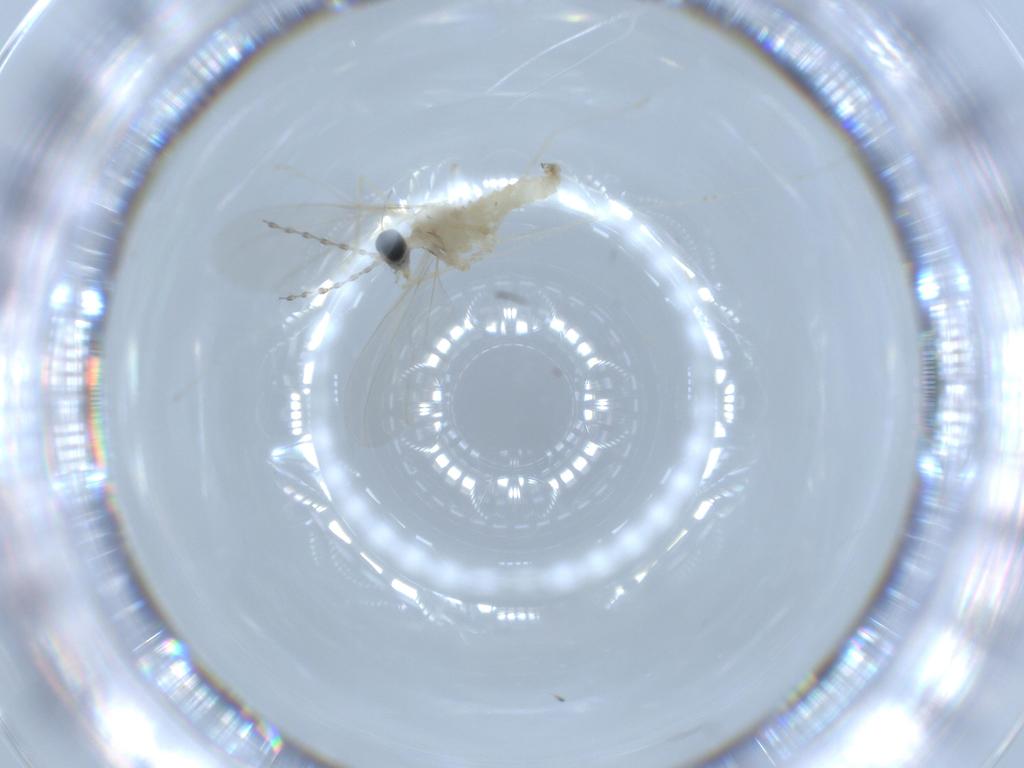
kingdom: Animalia
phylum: Arthropoda
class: Insecta
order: Diptera
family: Cecidomyiidae
